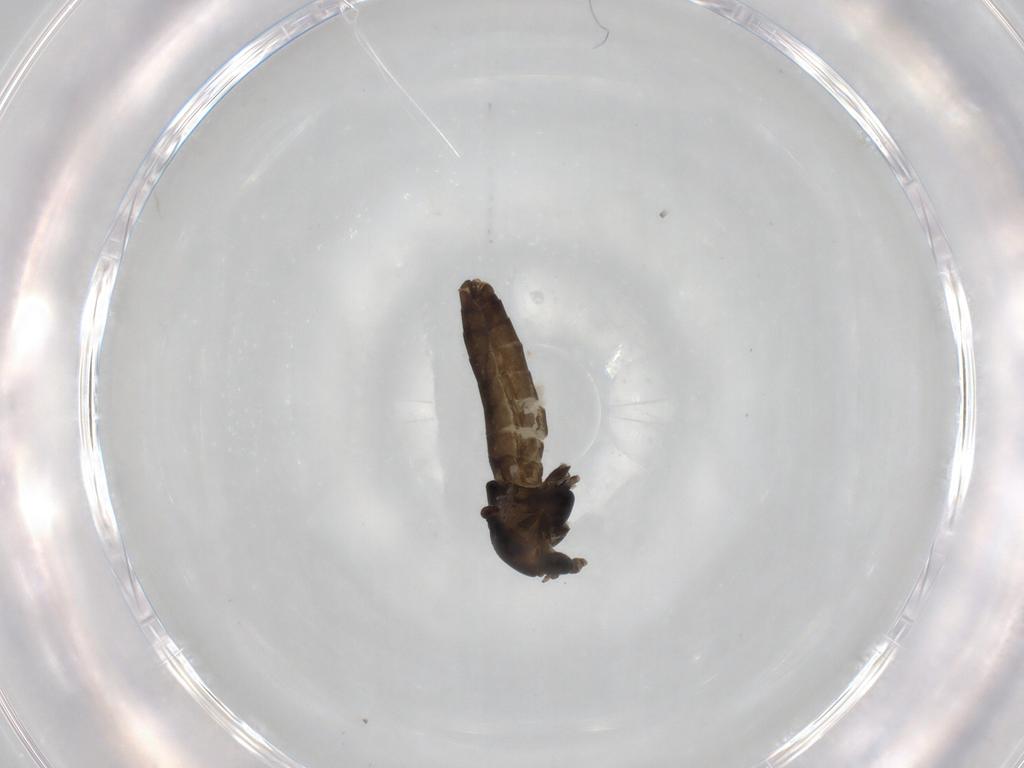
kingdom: Animalia
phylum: Arthropoda
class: Insecta
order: Diptera
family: Chironomidae
